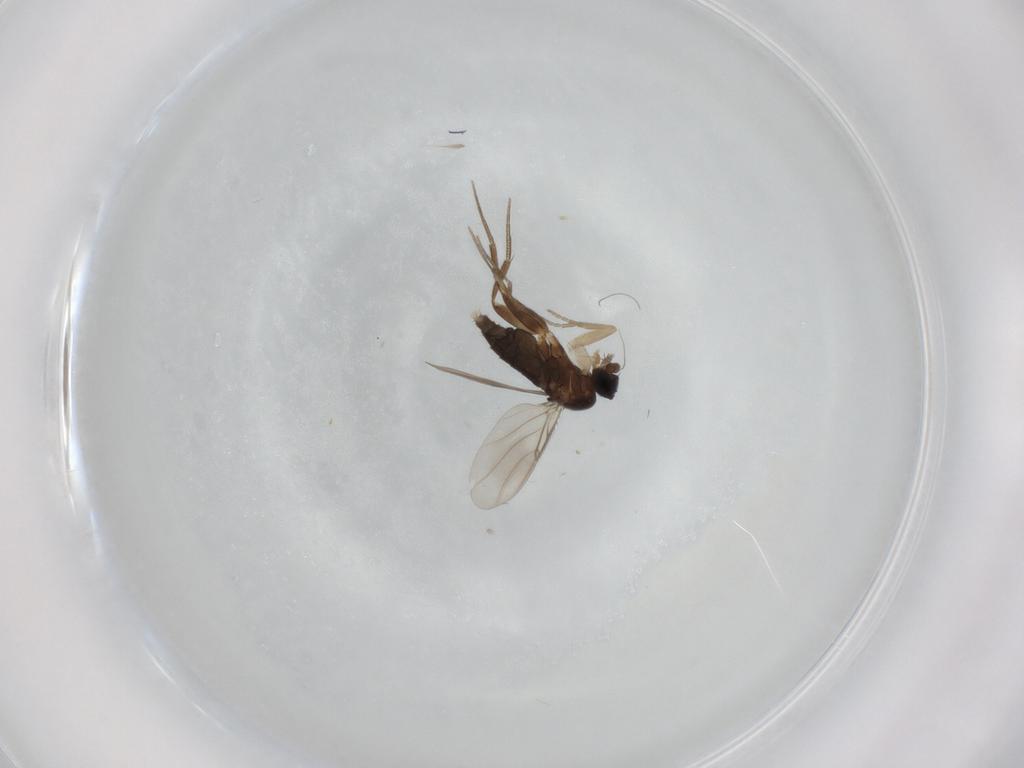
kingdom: Animalia
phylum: Arthropoda
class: Insecta
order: Diptera
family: Phoridae
